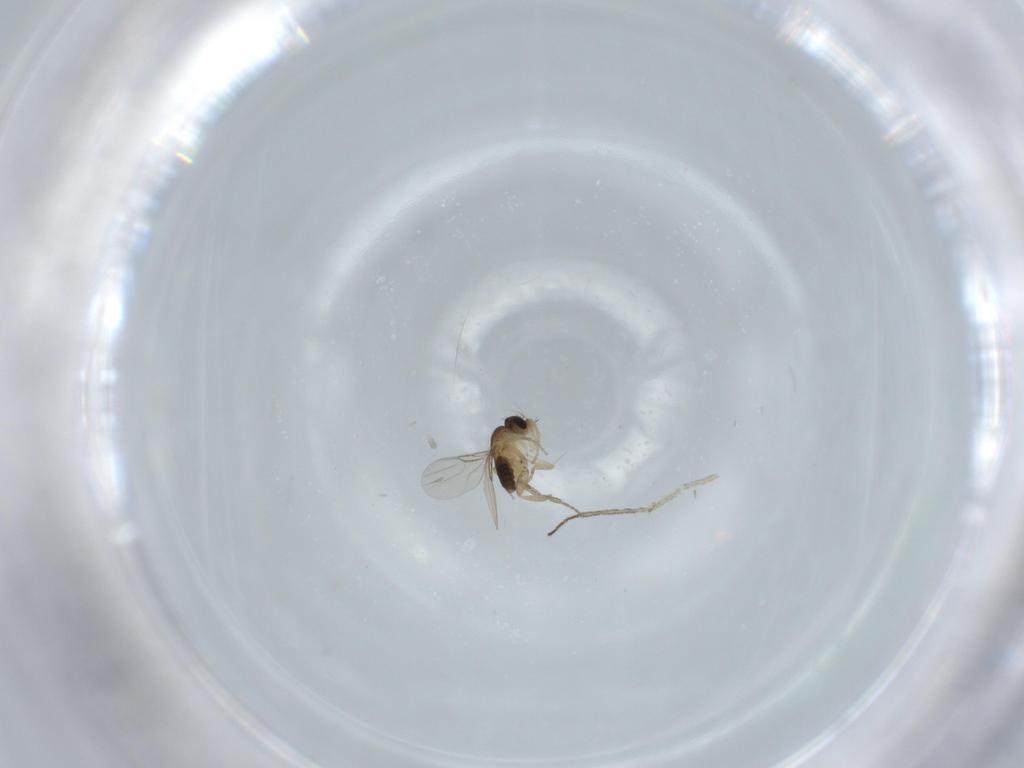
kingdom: Animalia
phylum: Arthropoda
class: Insecta
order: Diptera
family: Phoridae
